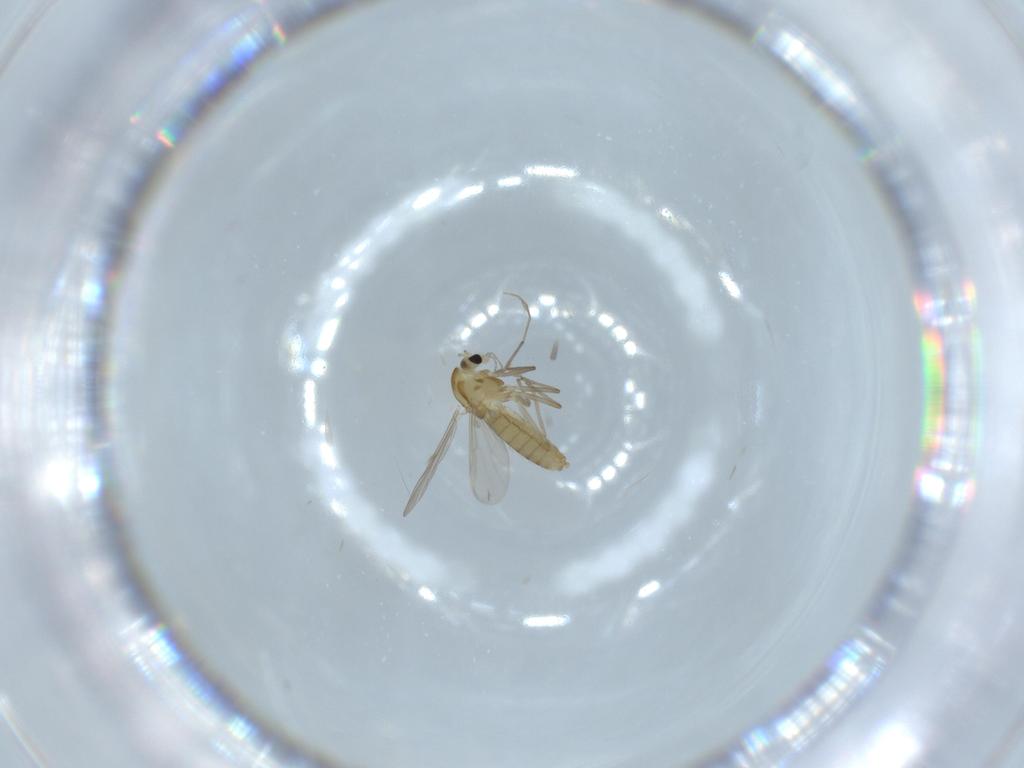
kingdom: Animalia
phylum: Arthropoda
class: Insecta
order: Diptera
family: Ceratopogonidae
